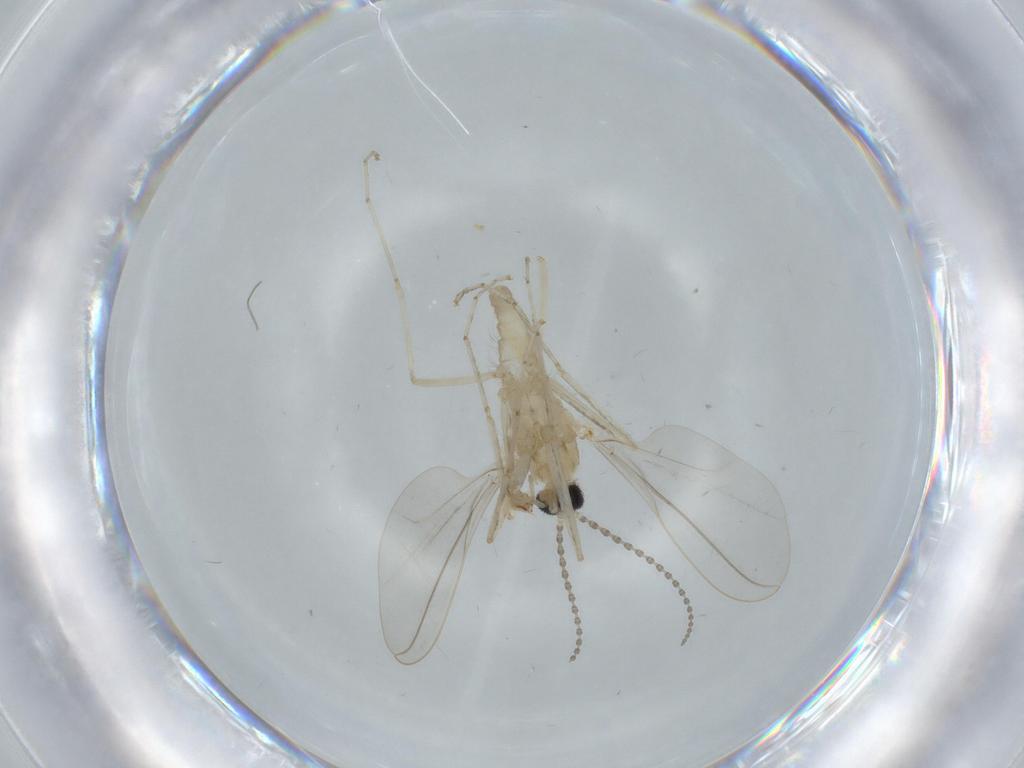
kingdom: Animalia
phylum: Arthropoda
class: Insecta
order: Diptera
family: Cecidomyiidae
